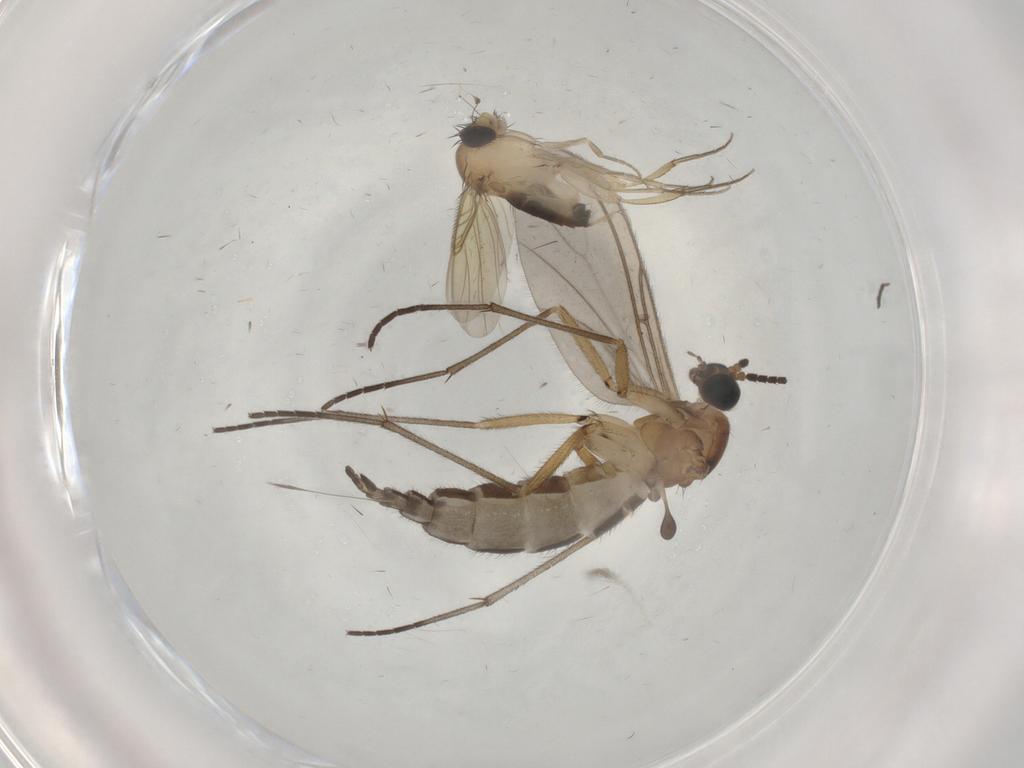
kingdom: Animalia
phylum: Arthropoda
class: Insecta
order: Diptera
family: Sciaridae
